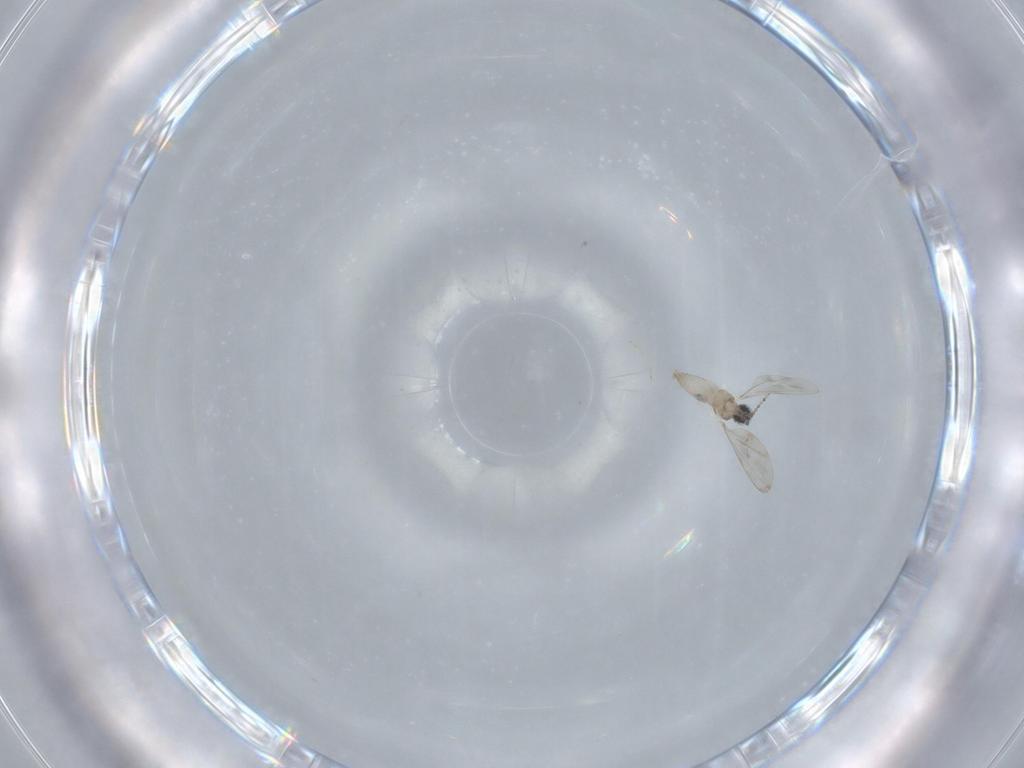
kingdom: Animalia
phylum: Arthropoda
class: Insecta
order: Diptera
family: Cecidomyiidae
